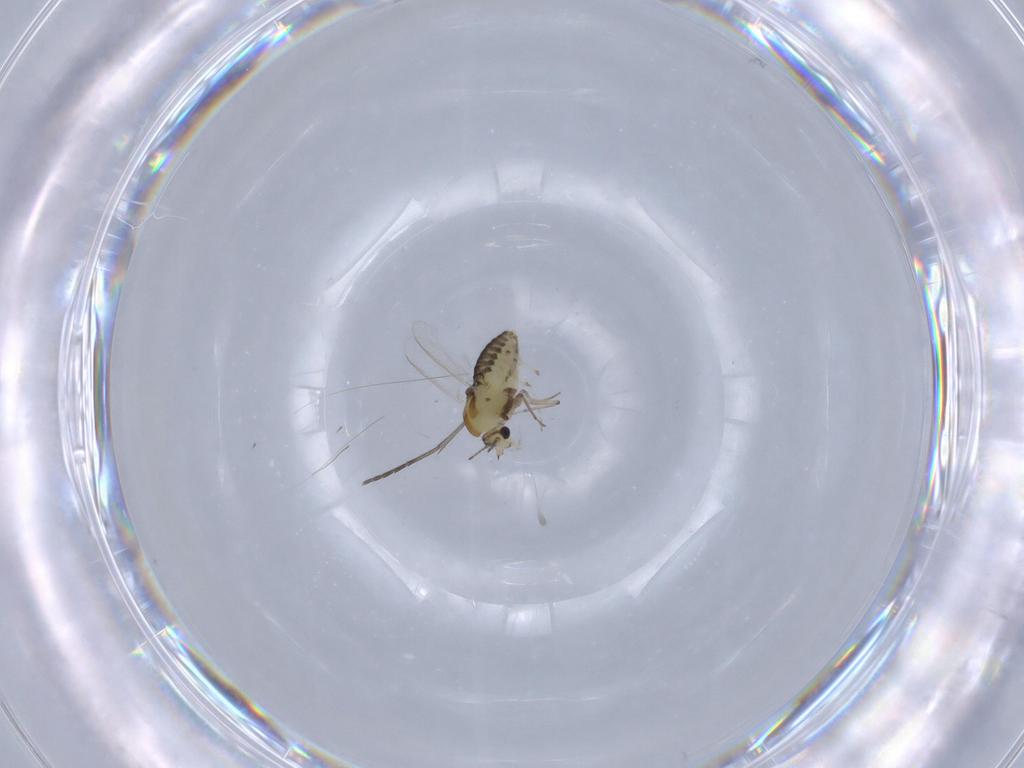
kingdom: Animalia
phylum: Arthropoda
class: Insecta
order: Diptera
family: Chironomidae
